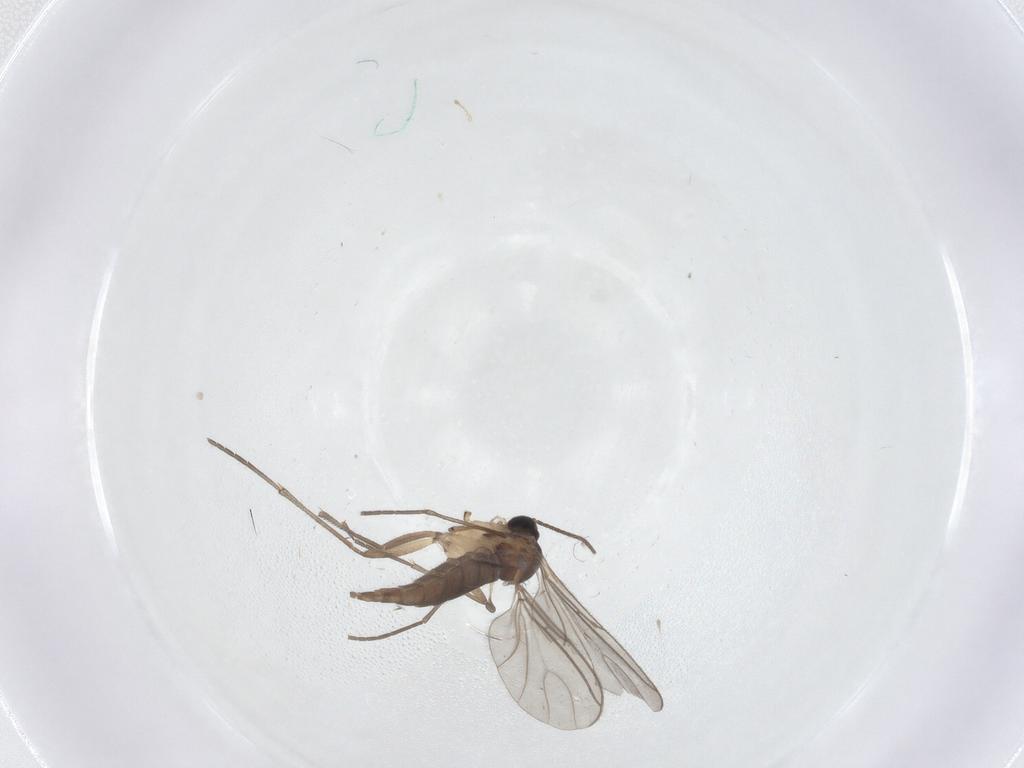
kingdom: Animalia
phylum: Arthropoda
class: Insecta
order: Diptera
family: Sciaridae
